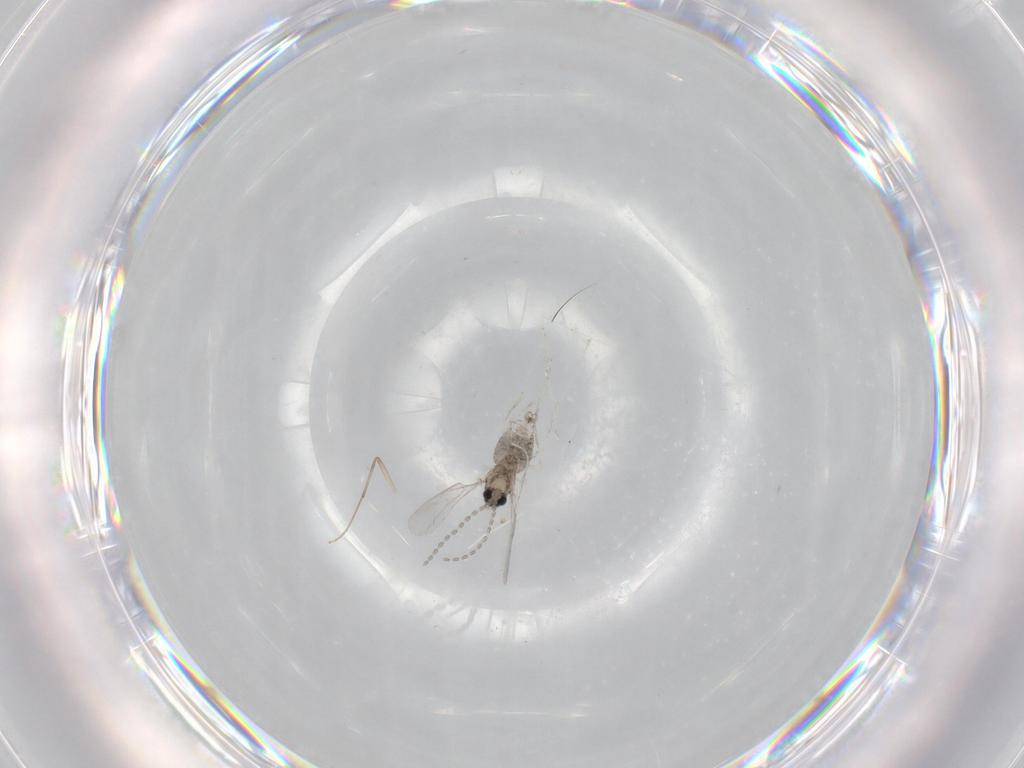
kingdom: Animalia
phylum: Arthropoda
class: Insecta
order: Diptera
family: Cecidomyiidae
